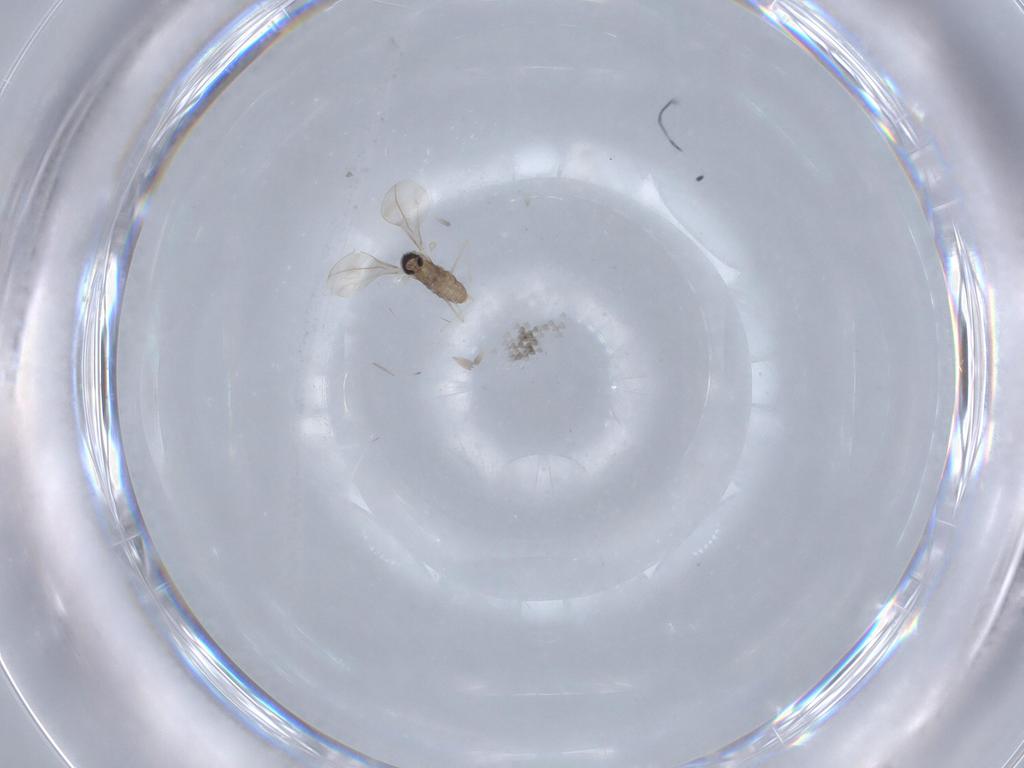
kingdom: Animalia
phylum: Arthropoda
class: Insecta
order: Diptera
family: Cecidomyiidae
